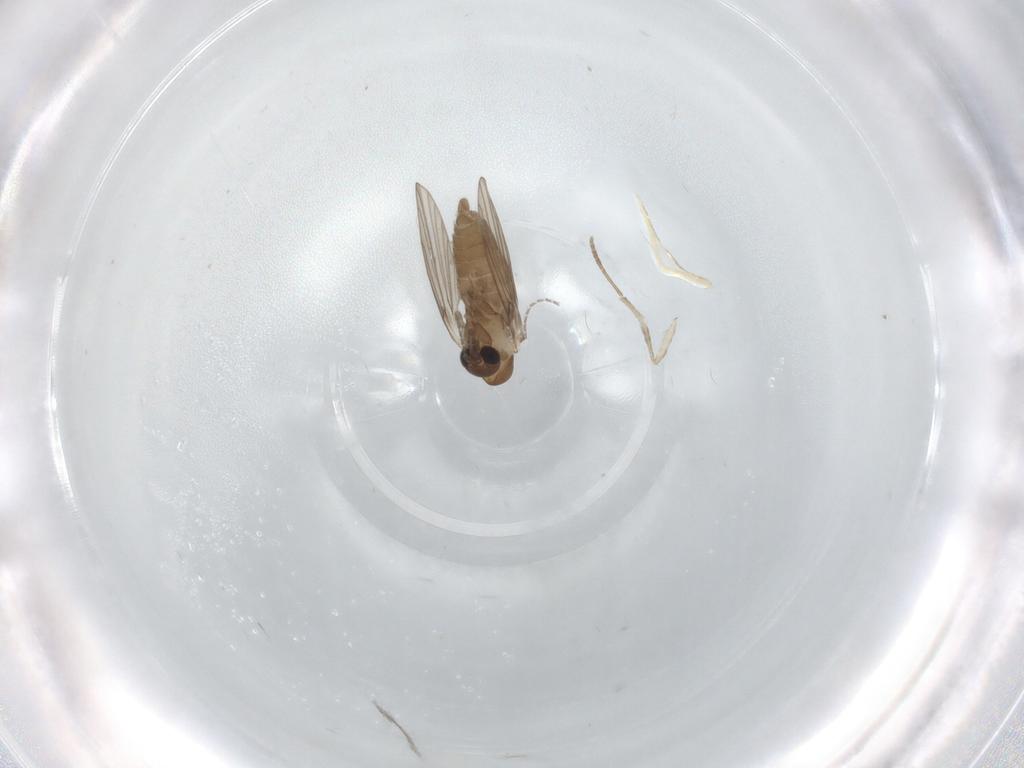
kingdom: Animalia
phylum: Arthropoda
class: Insecta
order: Diptera
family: Ceratopogonidae
